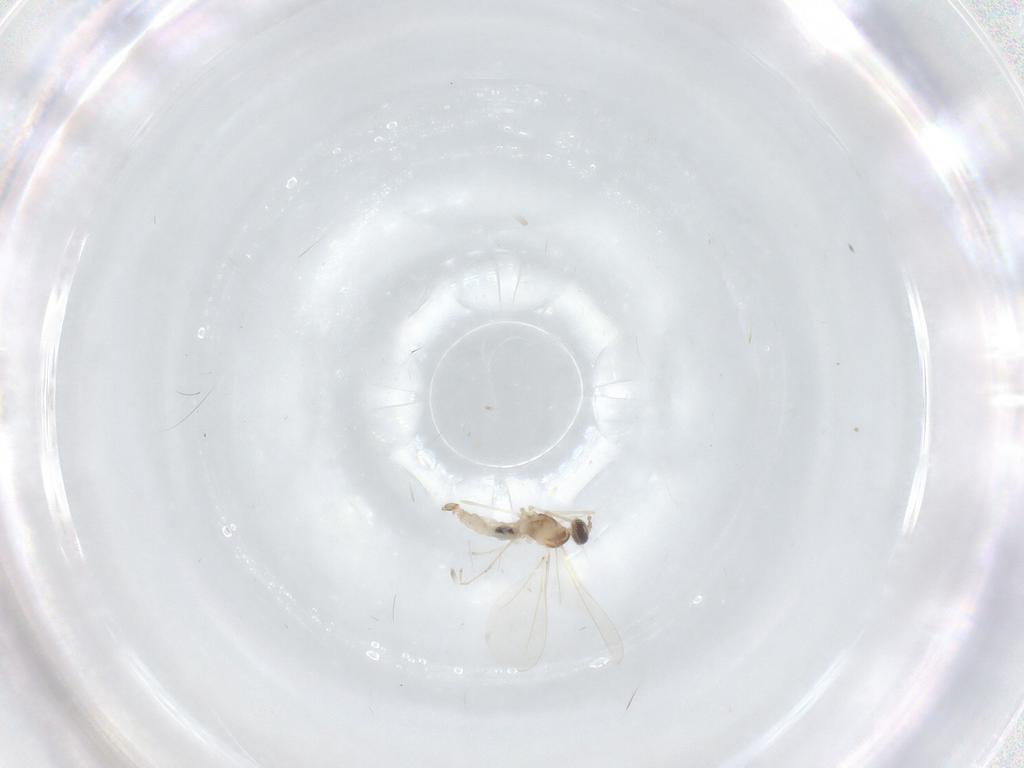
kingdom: Animalia
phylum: Arthropoda
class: Insecta
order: Diptera
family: Cecidomyiidae
